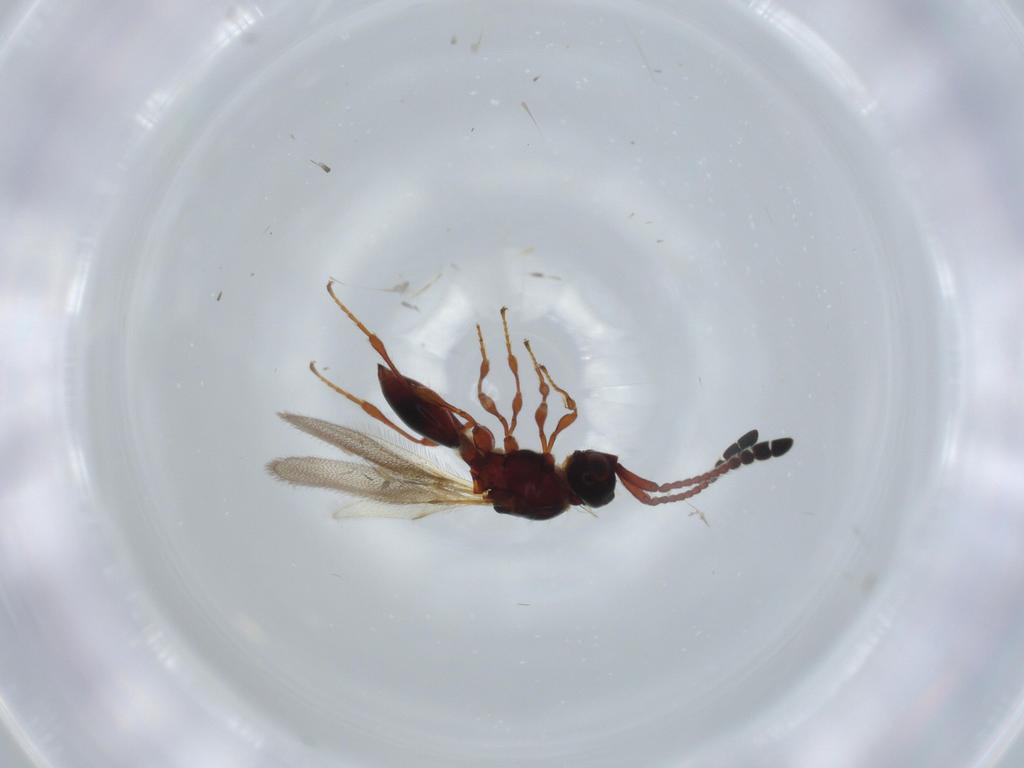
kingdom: Animalia
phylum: Arthropoda
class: Insecta
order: Hymenoptera
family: Diapriidae
